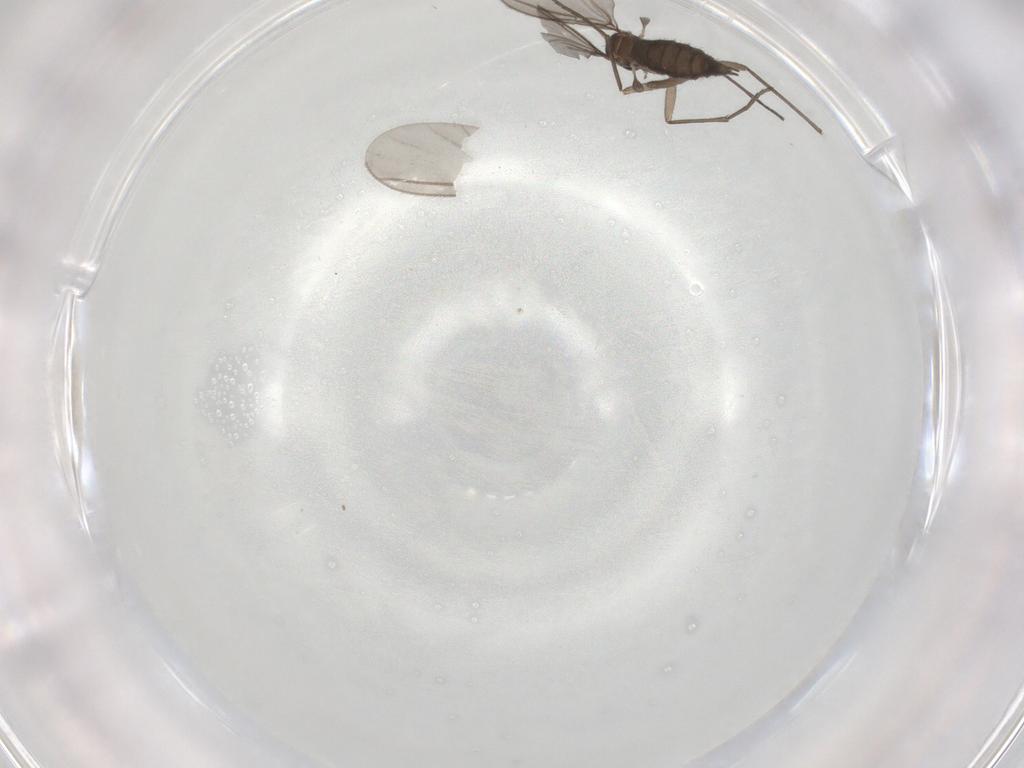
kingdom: Animalia
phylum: Arthropoda
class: Insecta
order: Diptera
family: Sciaridae
